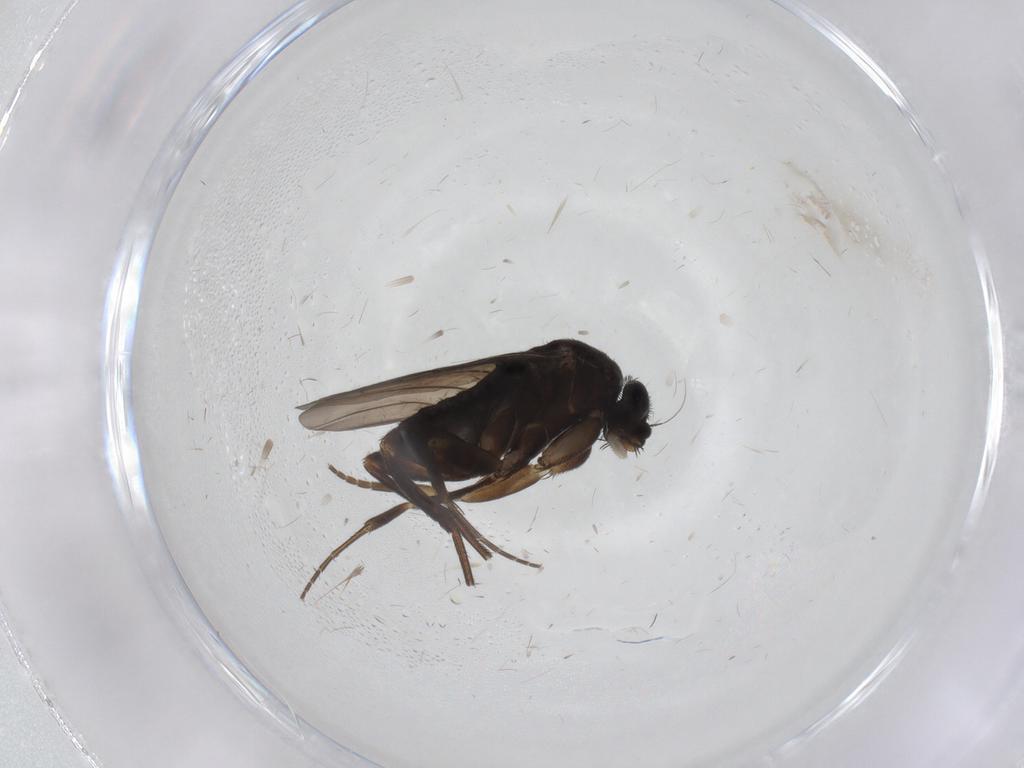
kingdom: Animalia
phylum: Arthropoda
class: Insecta
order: Diptera
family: Phoridae
